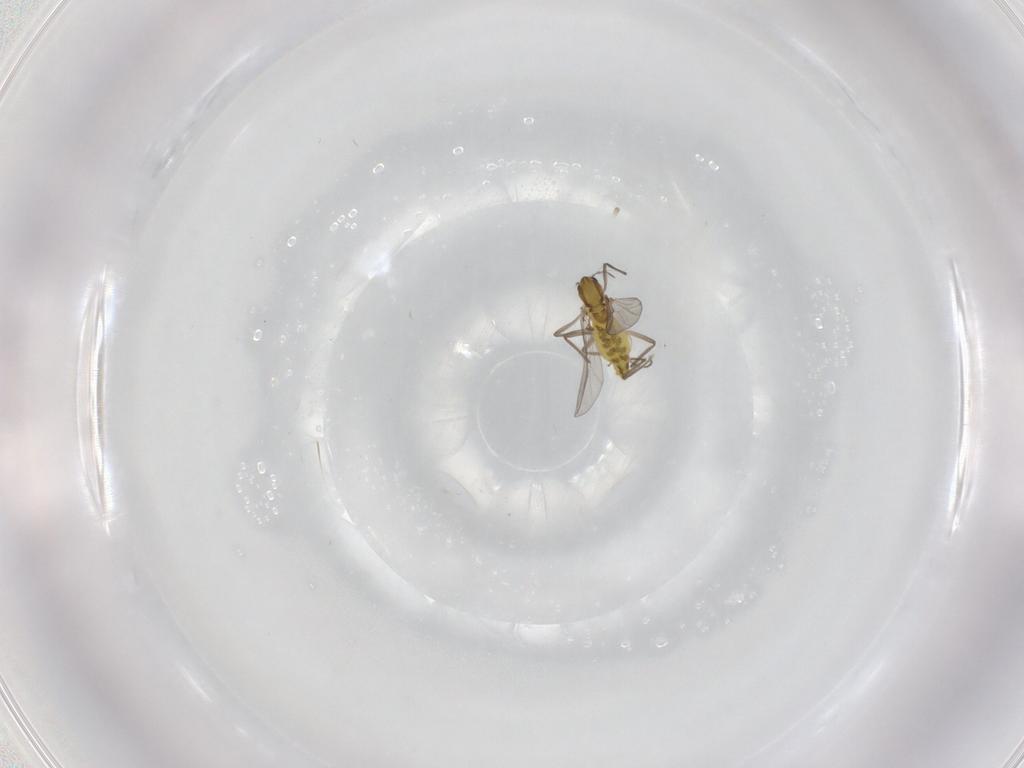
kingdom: Animalia
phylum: Arthropoda
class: Insecta
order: Diptera
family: Chironomidae
